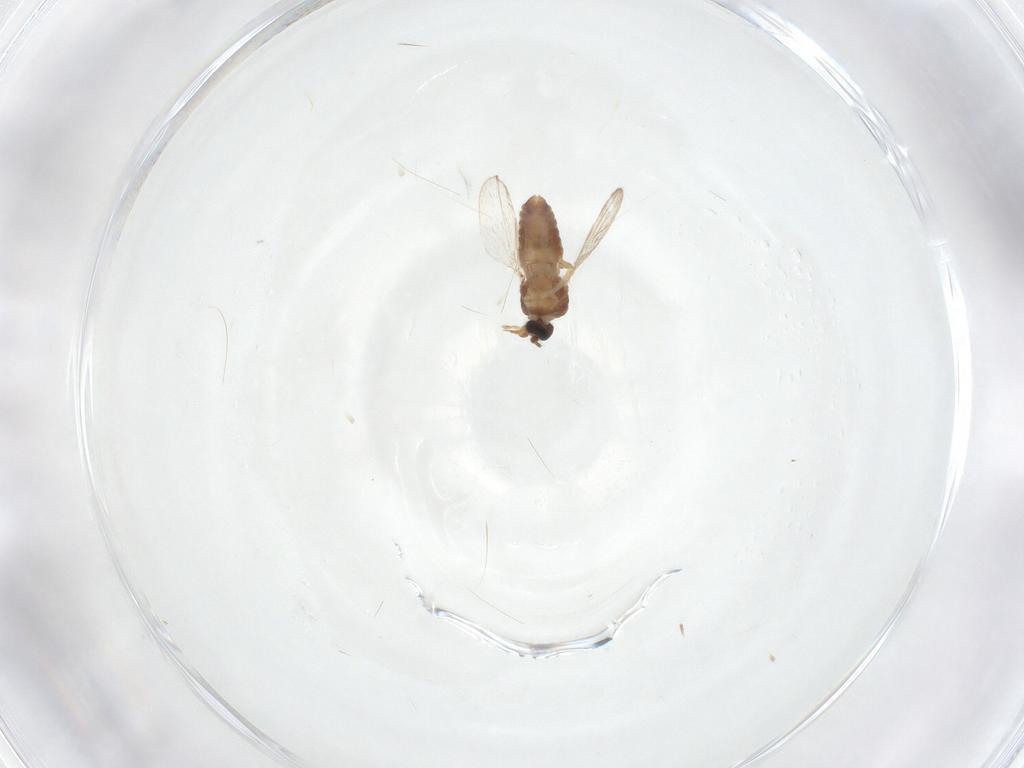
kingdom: Animalia
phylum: Arthropoda
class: Insecta
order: Diptera
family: Ceratopogonidae
